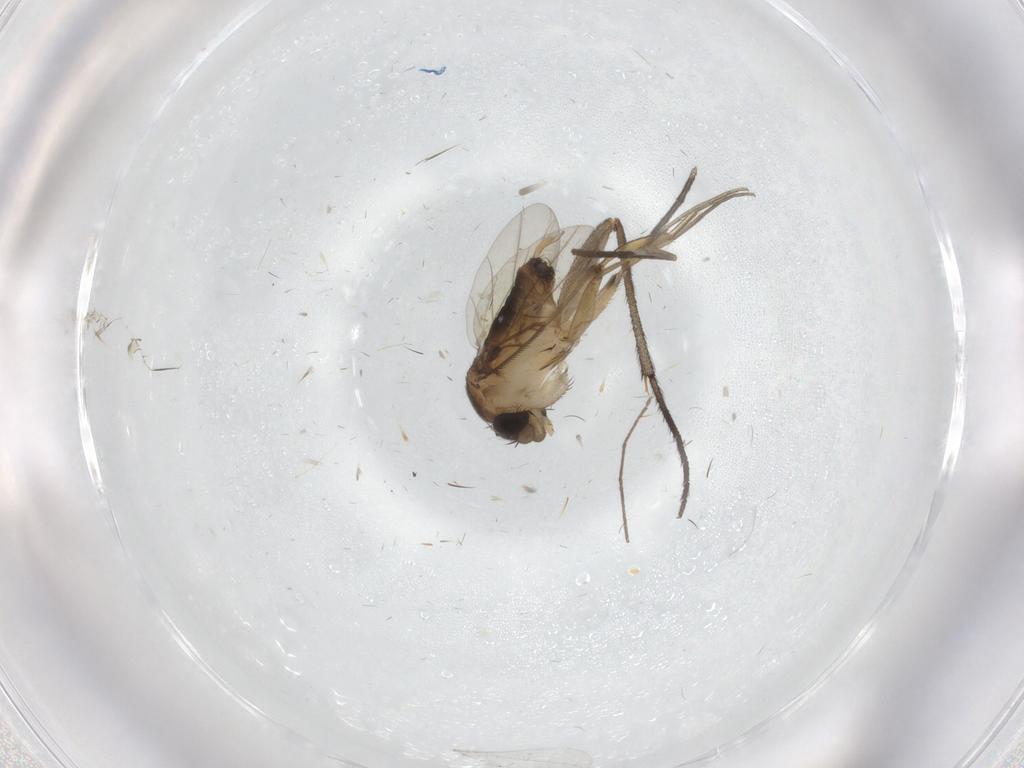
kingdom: Animalia
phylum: Arthropoda
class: Insecta
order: Diptera
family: Phoridae
